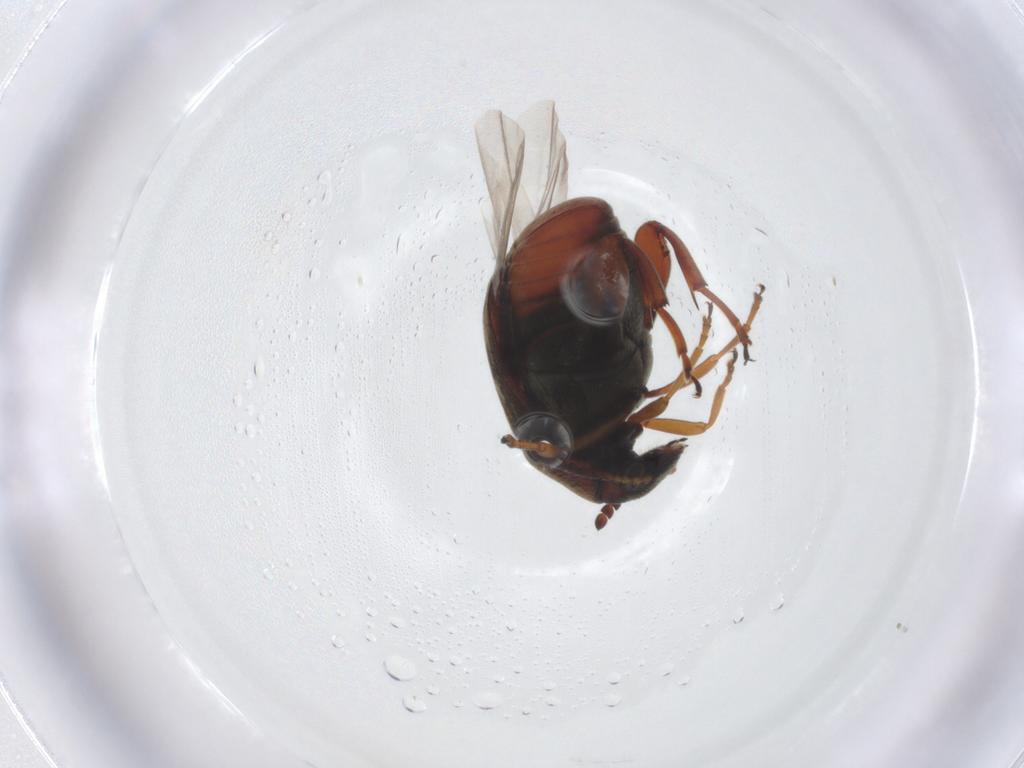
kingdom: Animalia
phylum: Arthropoda
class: Insecta
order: Coleoptera
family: Chrysomelidae
